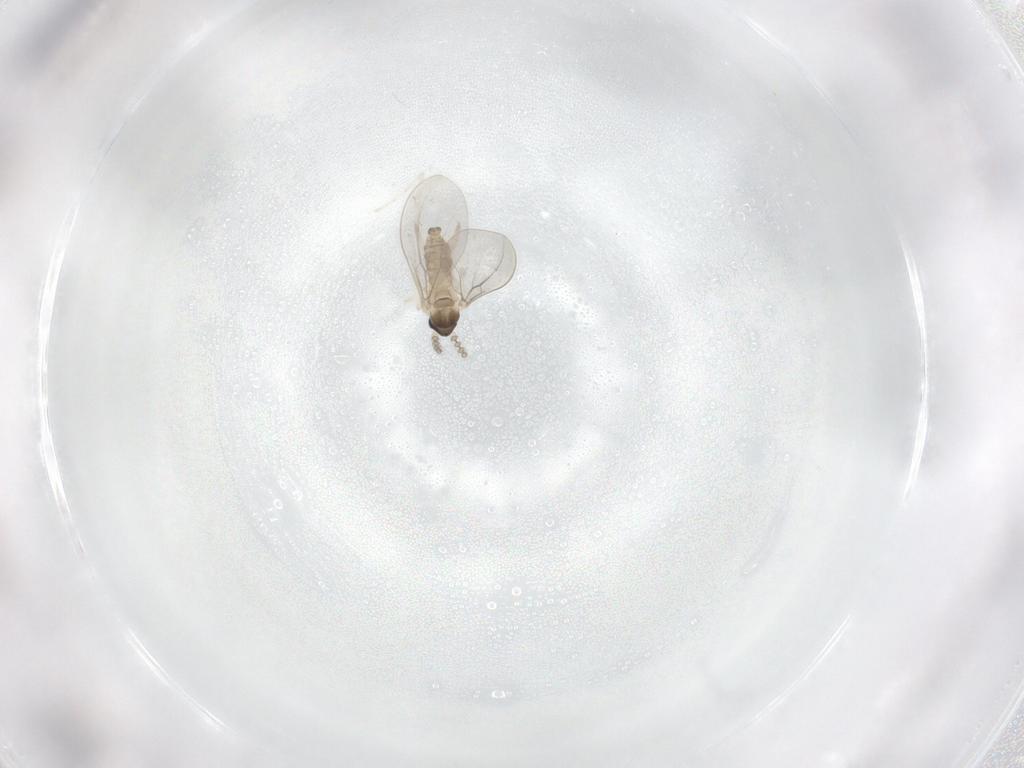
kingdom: Animalia
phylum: Arthropoda
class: Insecta
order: Diptera
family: Cecidomyiidae
